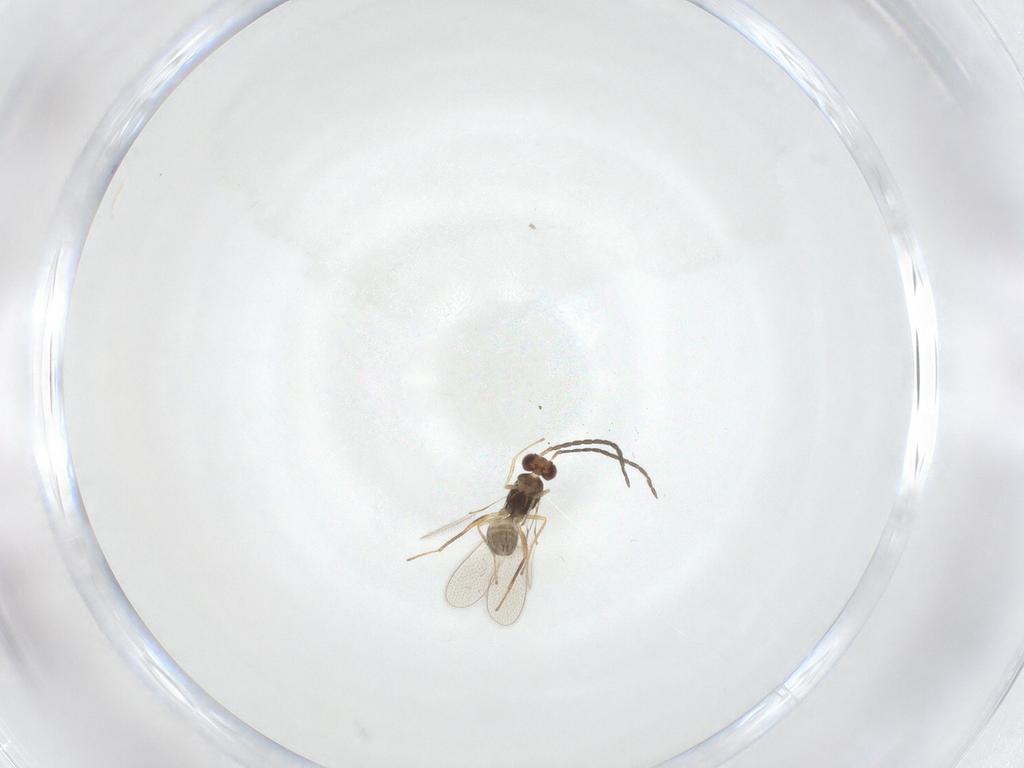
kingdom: Animalia
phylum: Arthropoda
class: Insecta
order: Hymenoptera
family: Mymaridae
